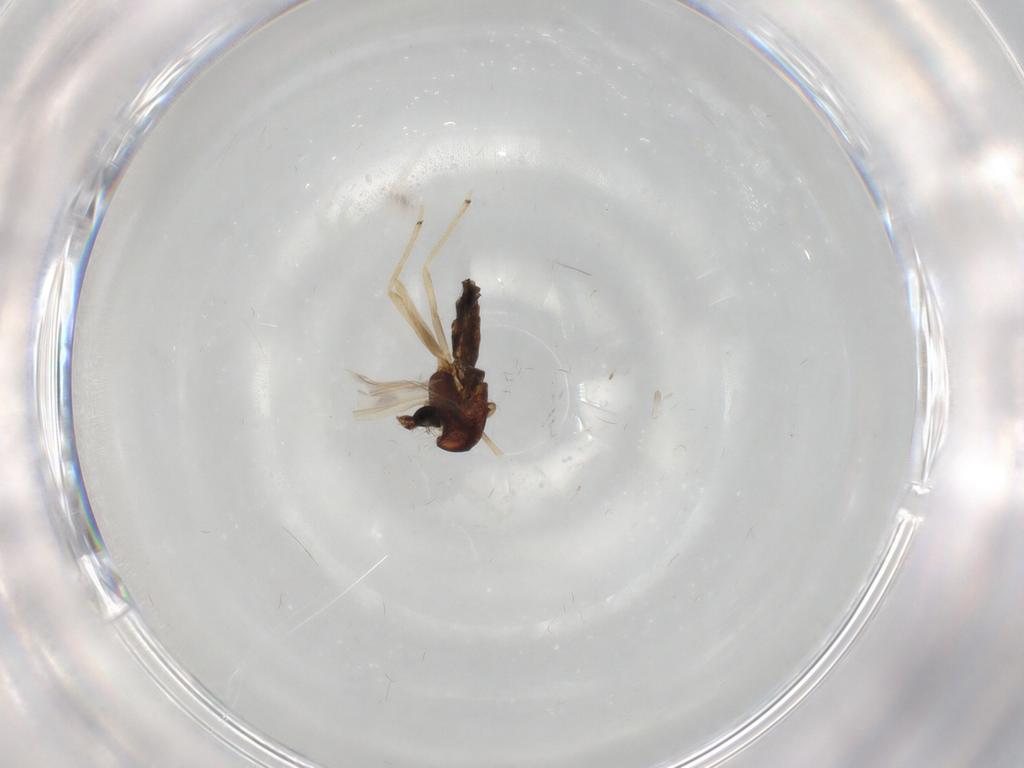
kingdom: Animalia
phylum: Arthropoda
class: Insecta
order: Diptera
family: Chironomidae
